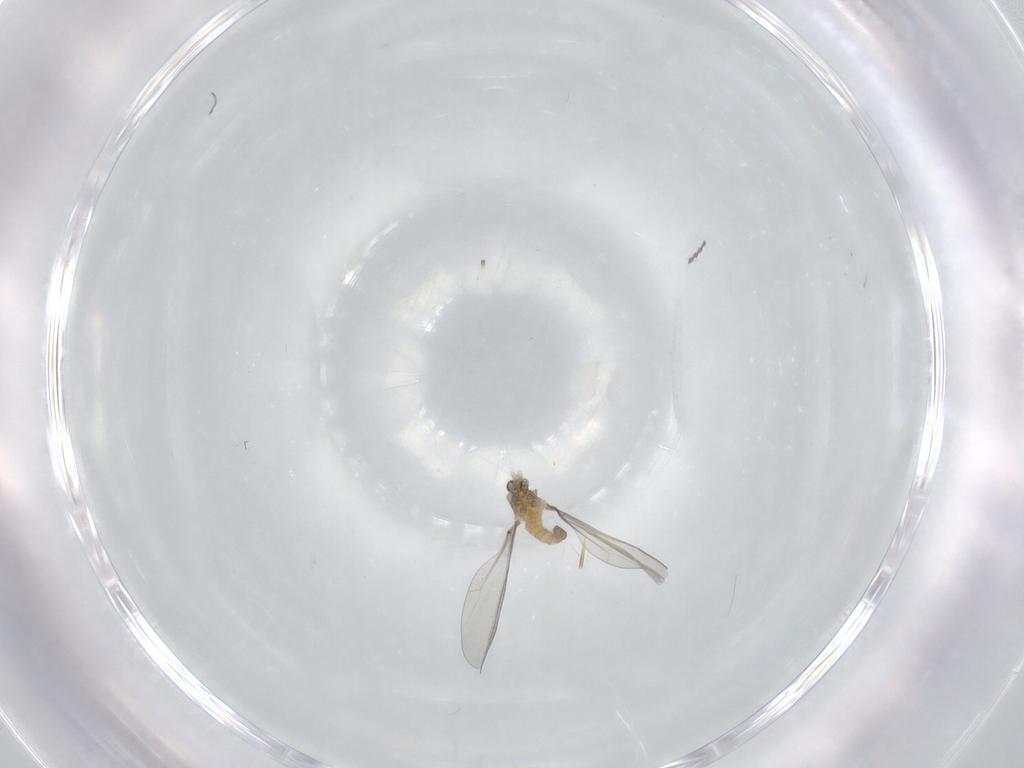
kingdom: Animalia
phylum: Arthropoda
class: Insecta
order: Diptera
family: Cecidomyiidae
